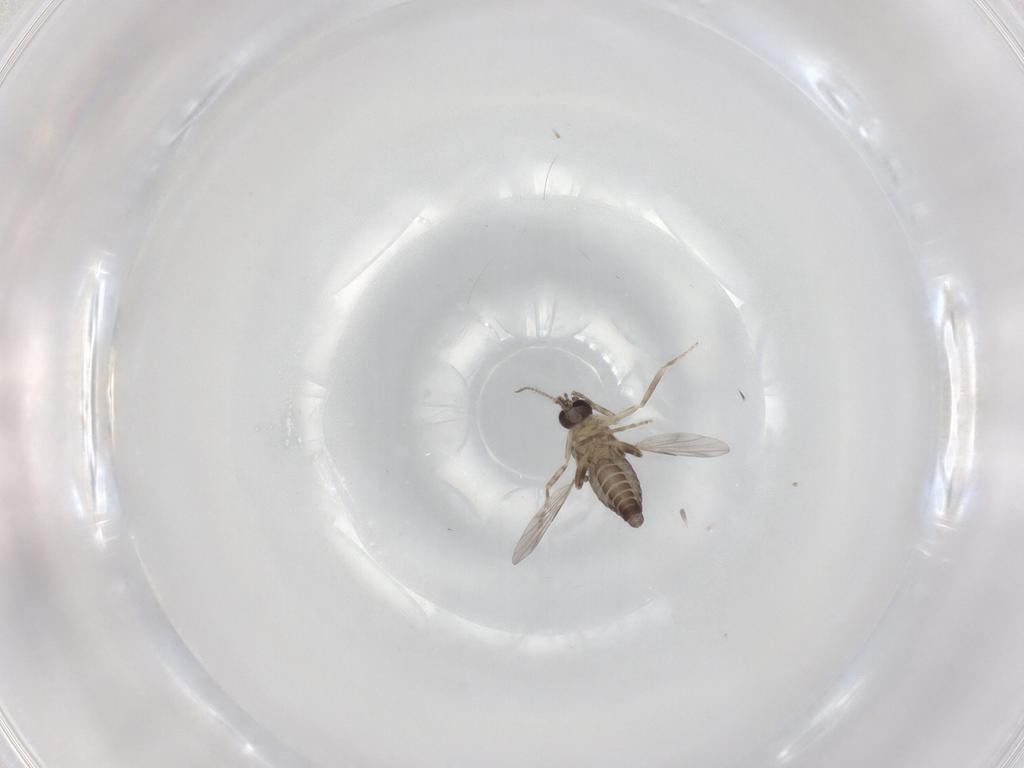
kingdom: Animalia
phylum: Arthropoda
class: Insecta
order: Diptera
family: Ceratopogonidae
